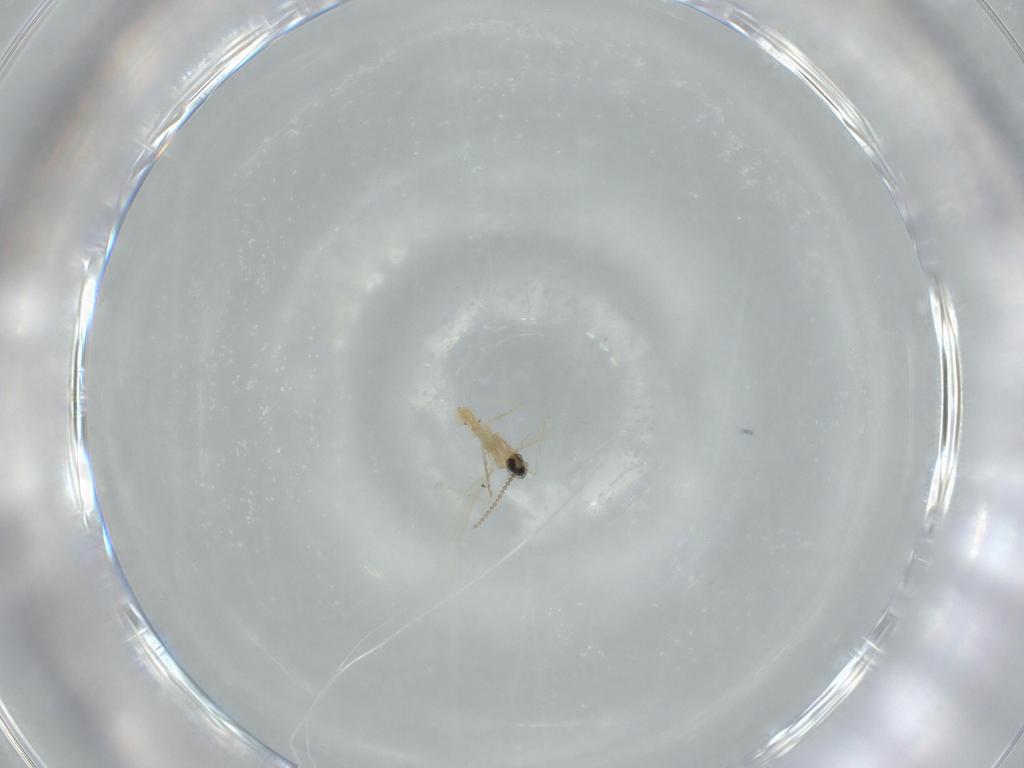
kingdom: Animalia
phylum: Arthropoda
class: Insecta
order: Diptera
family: Cecidomyiidae
